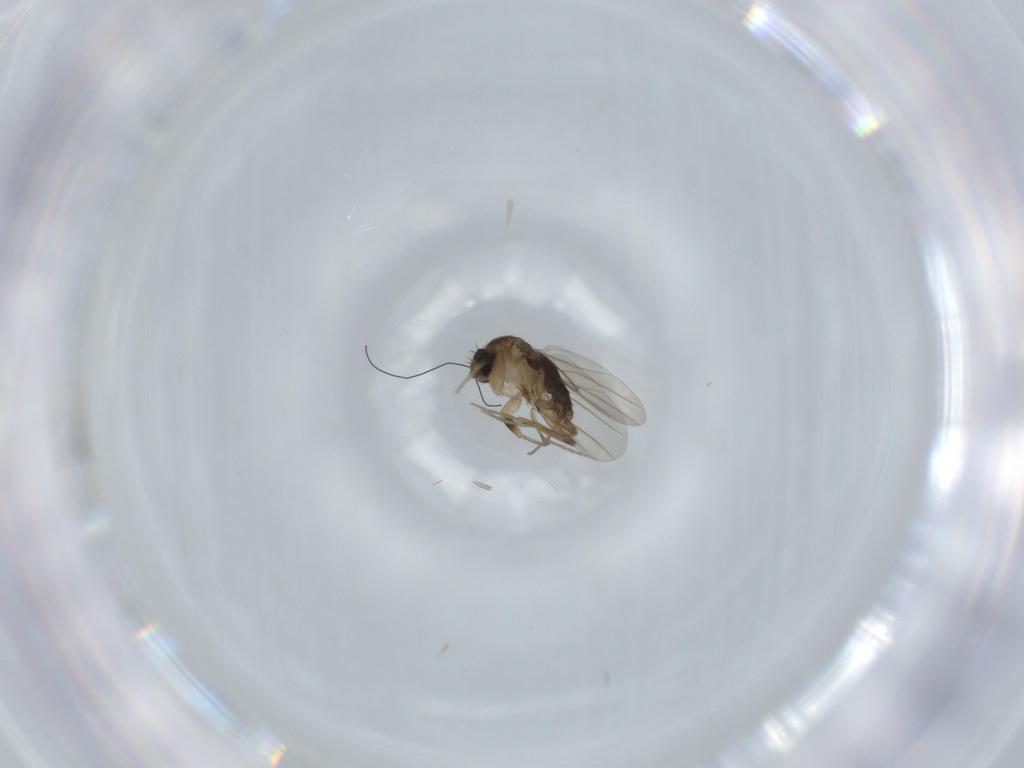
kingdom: Animalia
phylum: Arthropoda
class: Insecta
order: Diptera
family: Phoridae
